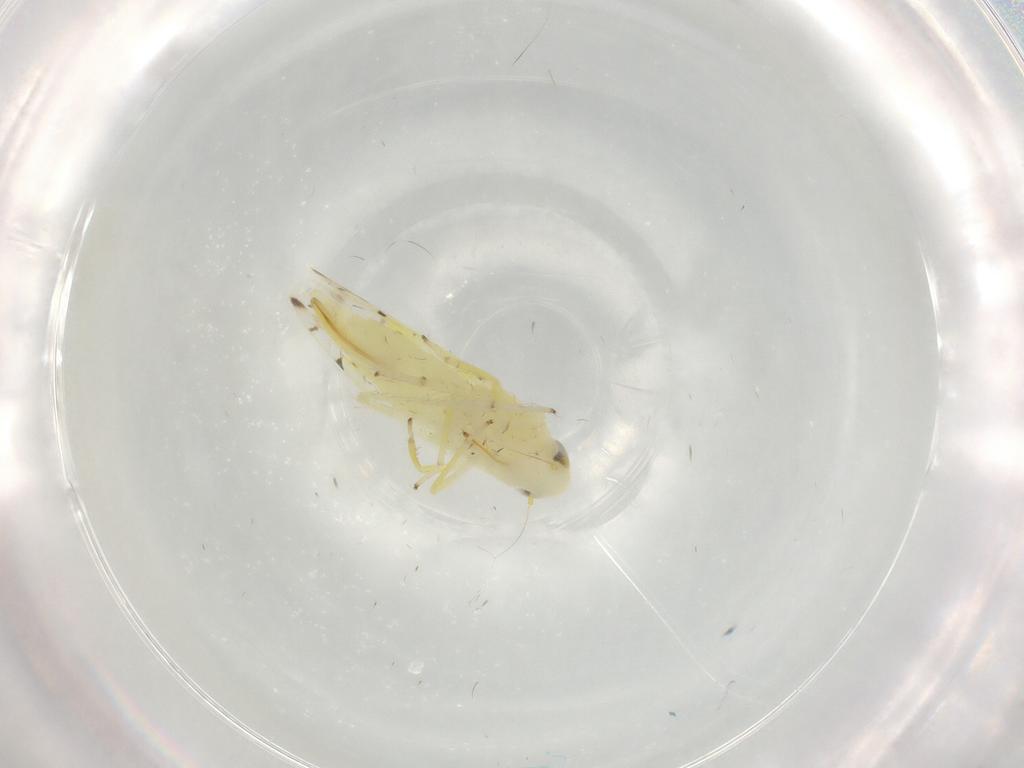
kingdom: Animalia
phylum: Arthropoda
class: Insecta
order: Hemiptera
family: Cicadellidae
